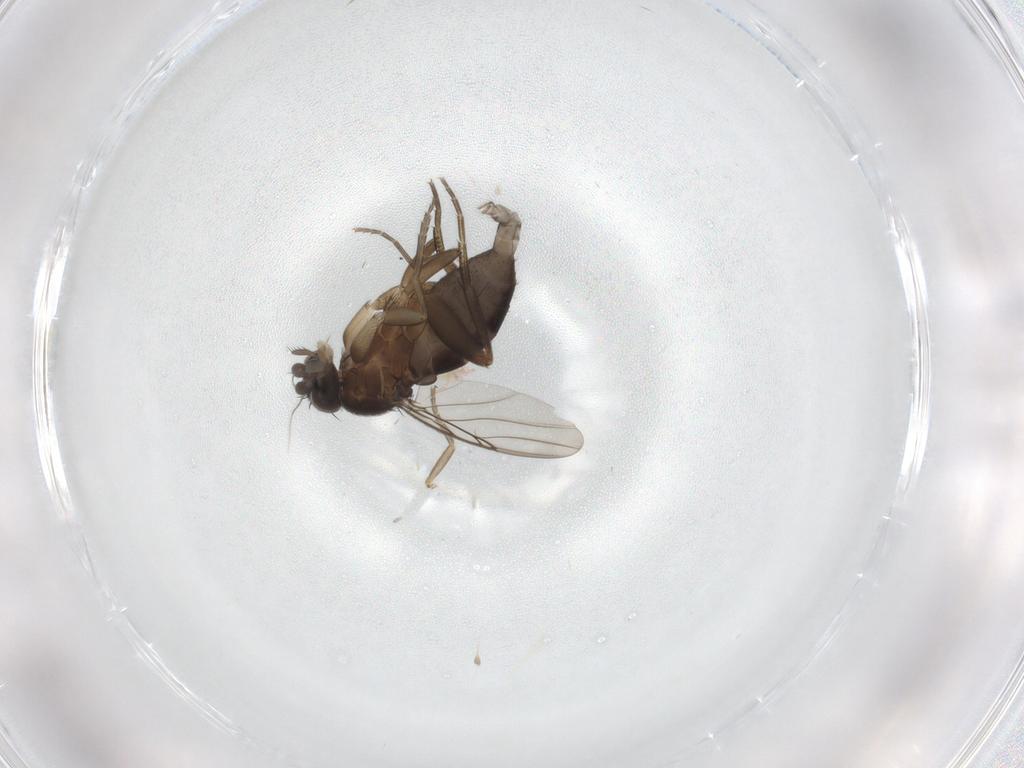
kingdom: Animalia
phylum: Arthropoda
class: Insecta
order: Diptera
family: Phoridae
